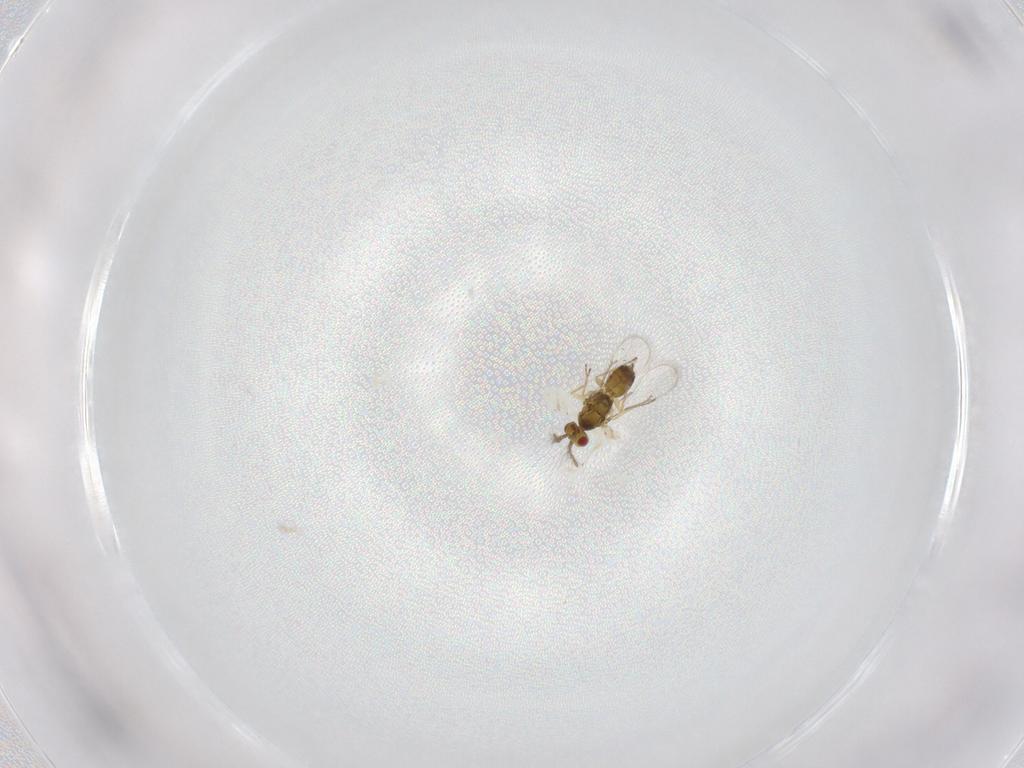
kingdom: Animalia
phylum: Arthropoda
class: Insecta
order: Hymenoptera
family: Eulophidae
